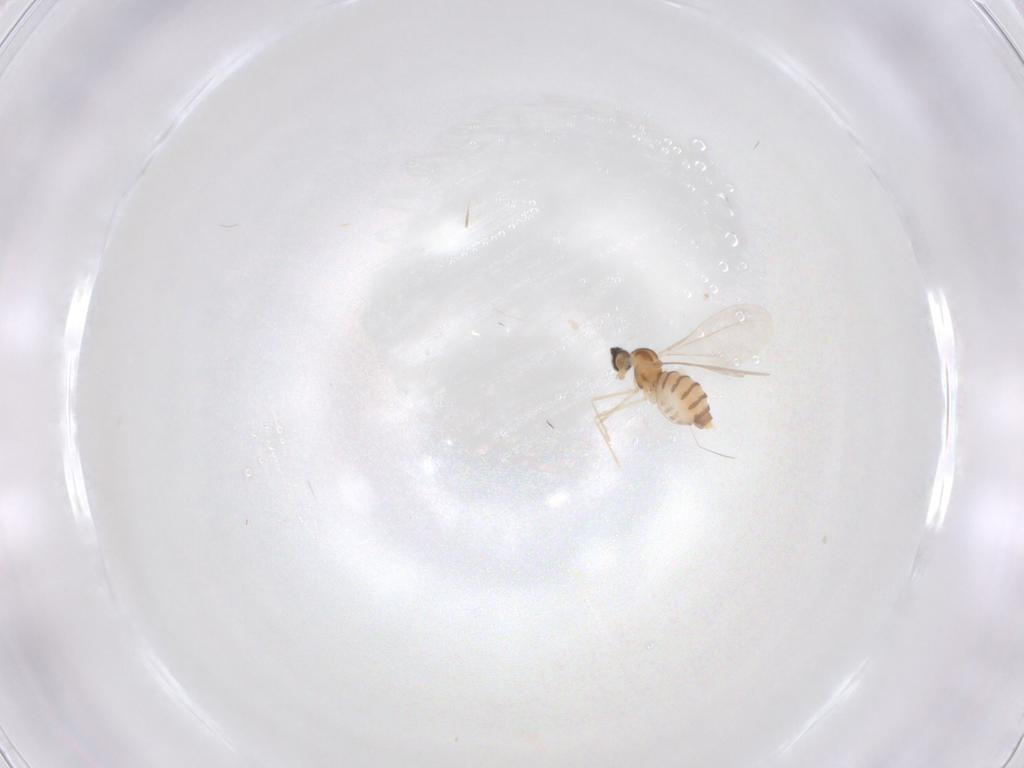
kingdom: Animalia
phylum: Arthropoda
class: Insecta
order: Diptera
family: Cecidomyiidae
